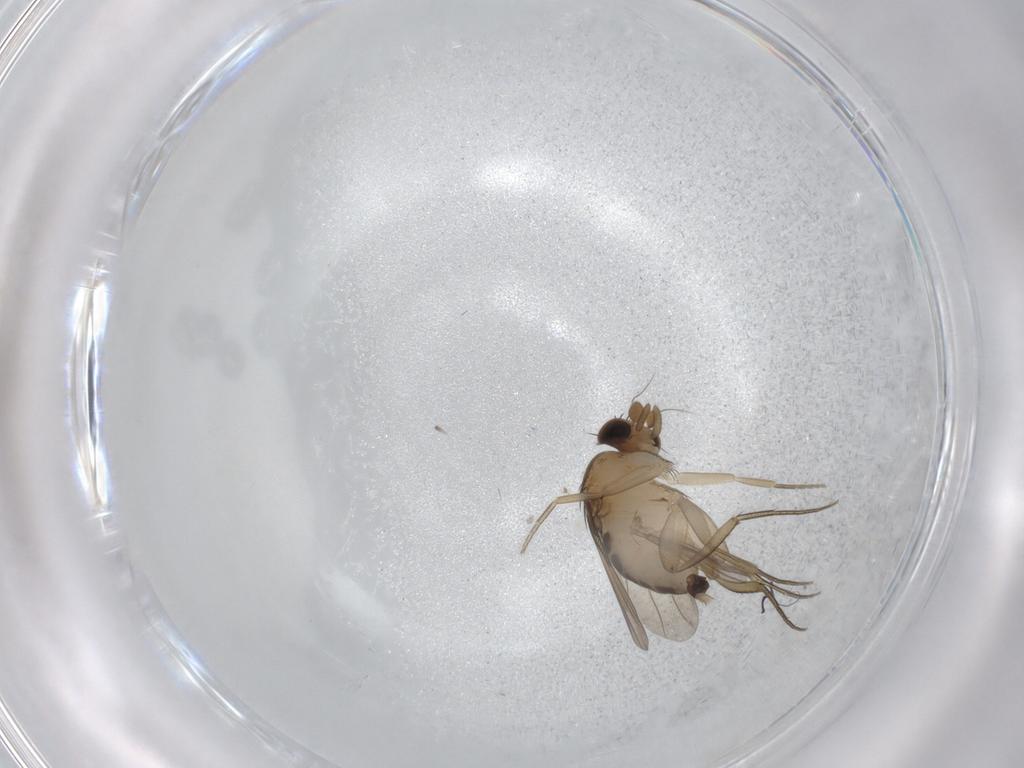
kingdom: Animalia
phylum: Arthropoda
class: Insecta
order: Diptera
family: Phoridae
